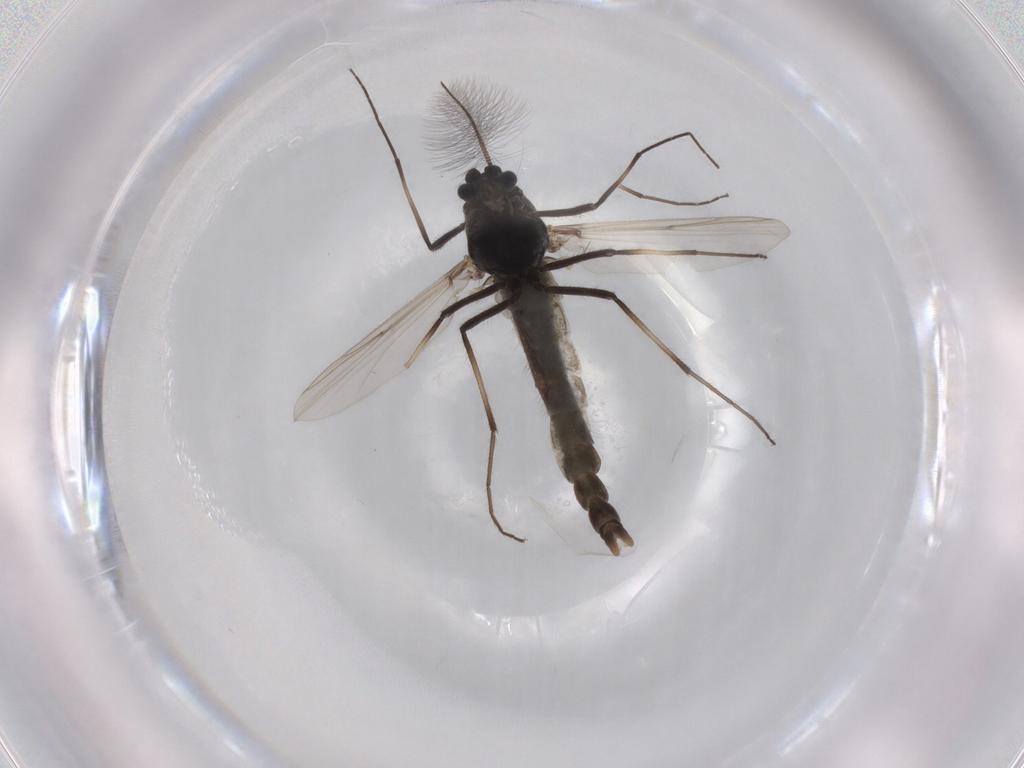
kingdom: Animalia
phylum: Arthropoda
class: Insecta
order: Diptera
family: Chironomidae
